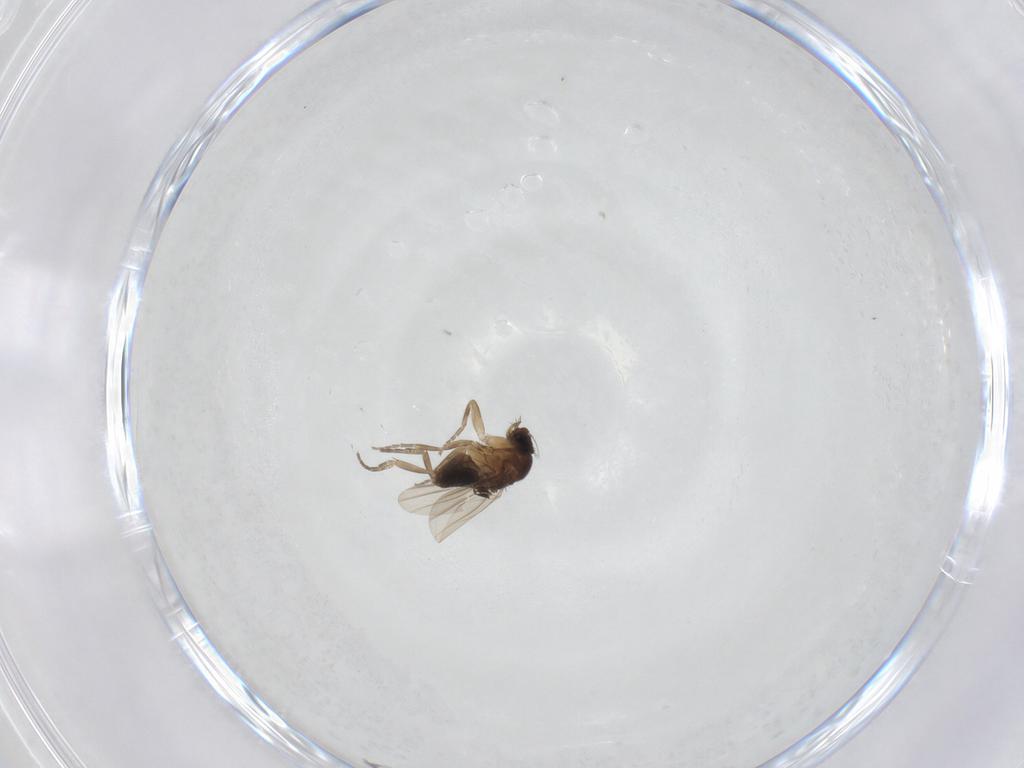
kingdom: Animalia
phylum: Arthropoda
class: Insecta
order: Diptera
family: Phoridae
